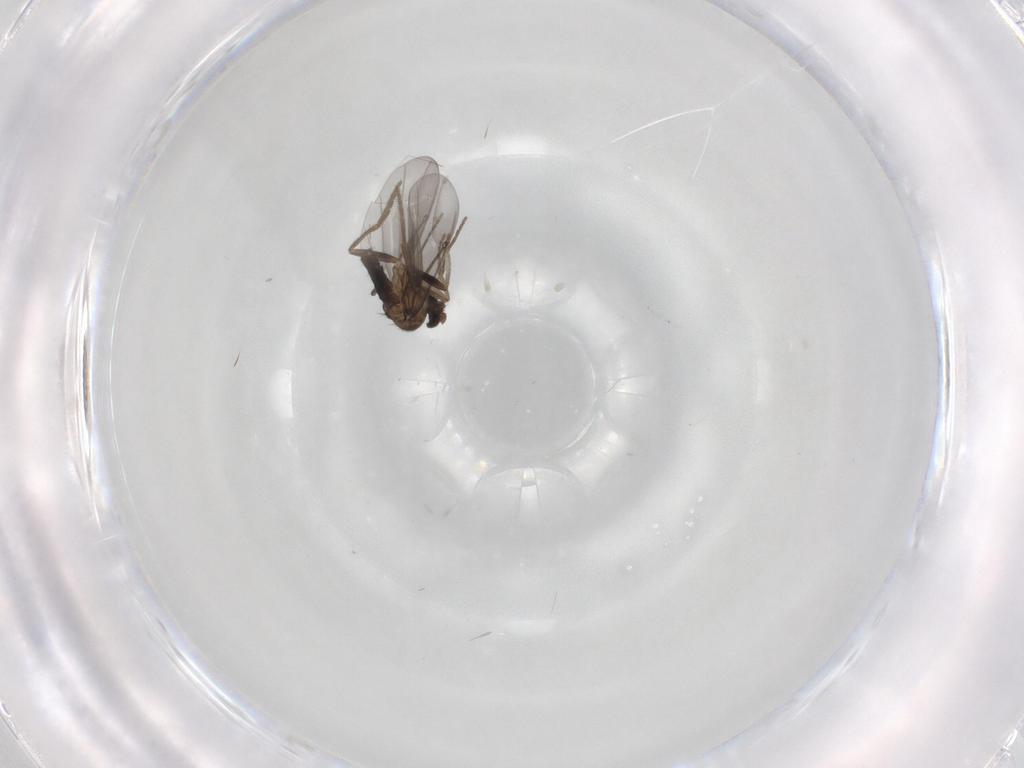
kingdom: Animalia
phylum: Arthropoda
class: Insecta
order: Diptera
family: Phoridae
